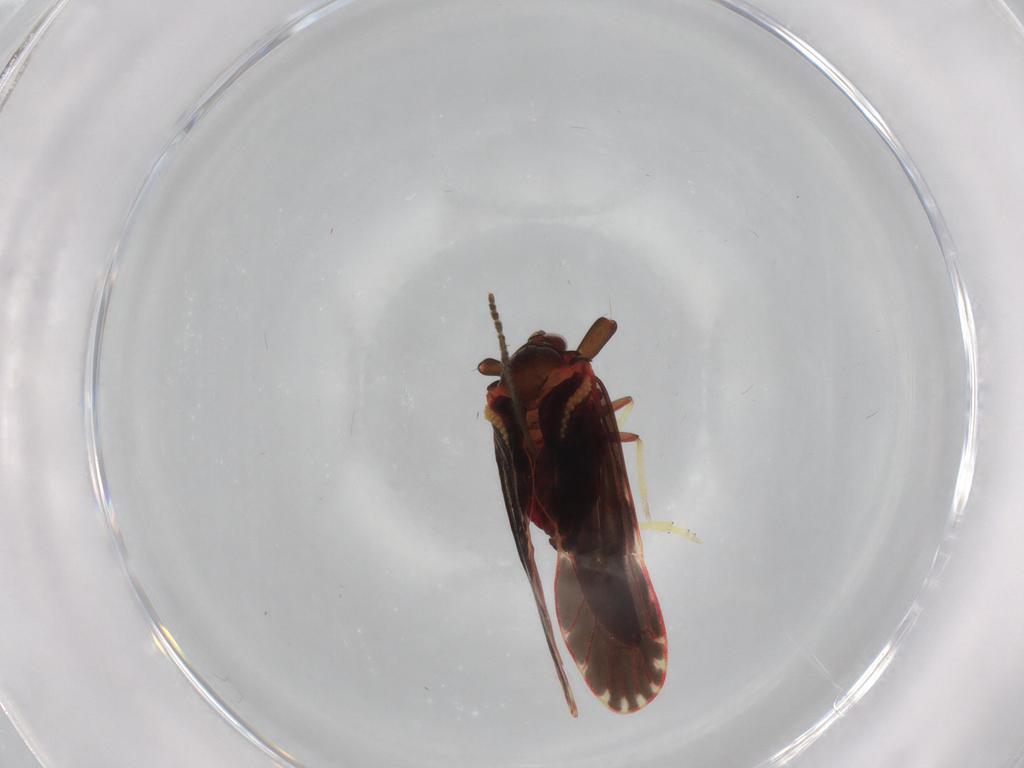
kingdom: Animalia
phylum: Arthropoda
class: Insecta
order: Hemiptera
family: Derbidae
